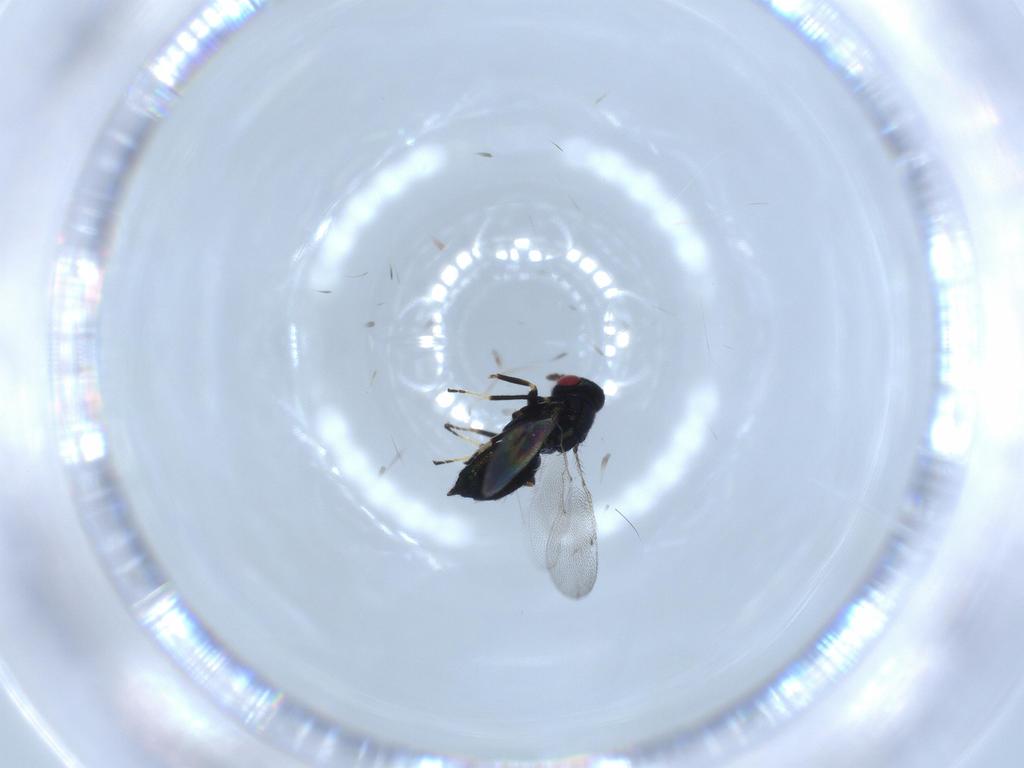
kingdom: Animalia
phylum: Arthropoda
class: Insecta
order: Hymenoptera
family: Eulophidae
